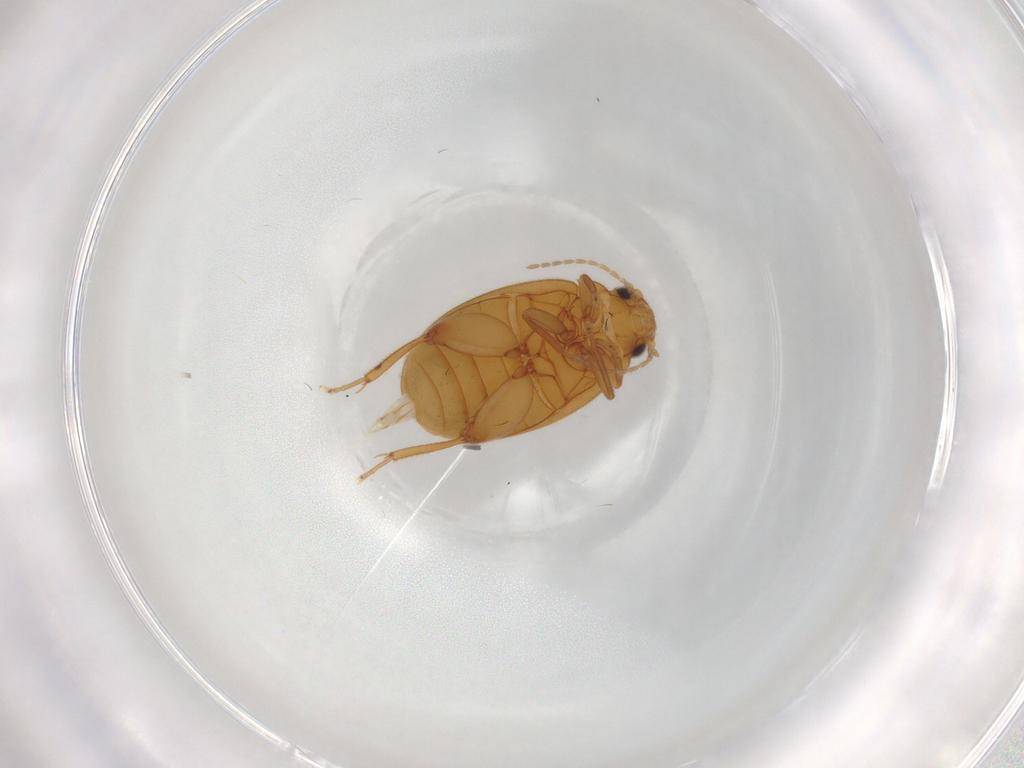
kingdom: Animalia
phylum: Arthropoda
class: Insecta
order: Coleoptera
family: Scirtidae
